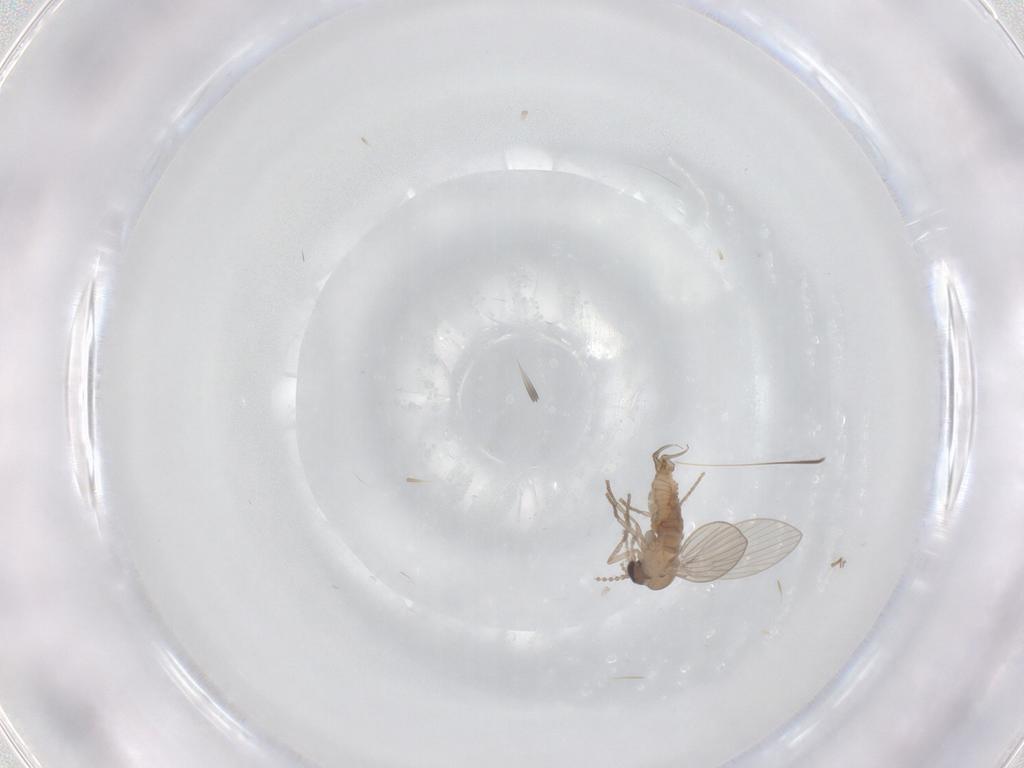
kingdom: Animalia
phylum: Arthropoda
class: Insecta
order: Diptera
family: Psychodidae
